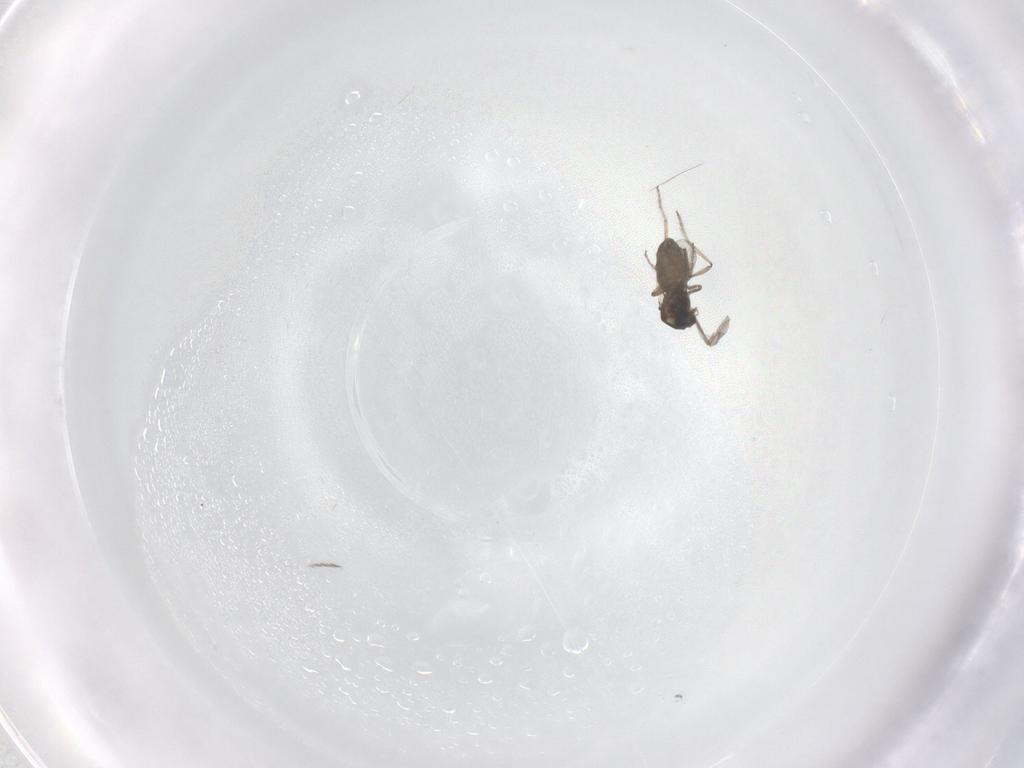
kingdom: Animalia
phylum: Arthropoda
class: Insecta
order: Diptera
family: Ceratopogonidae
